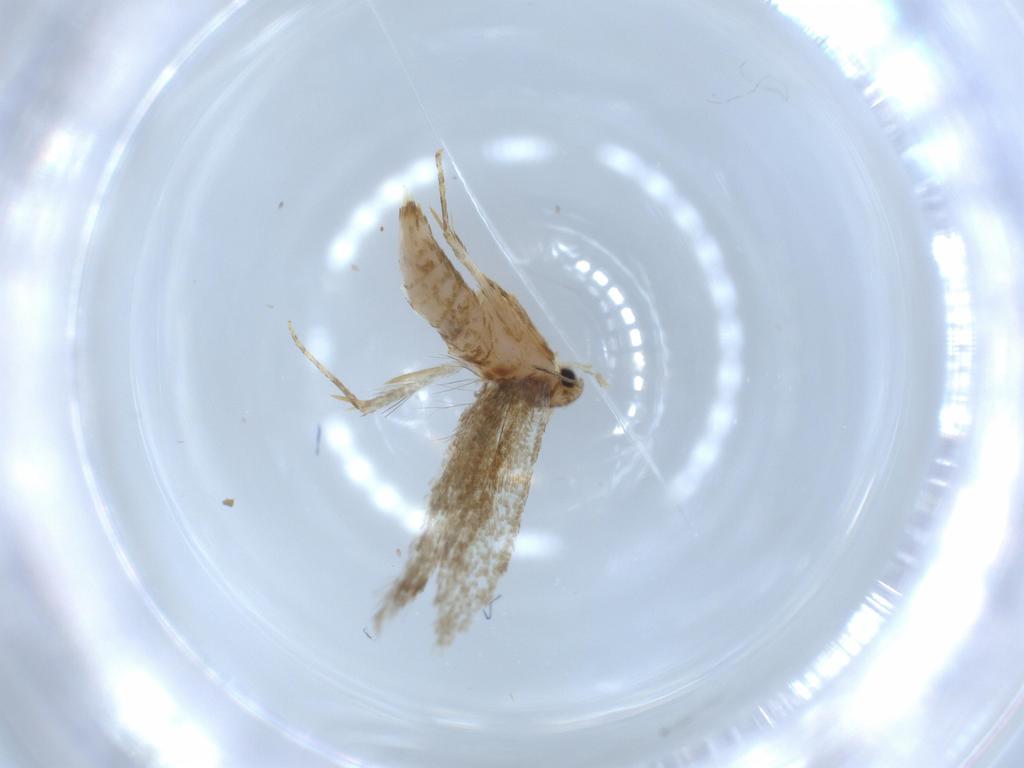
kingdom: Animalia
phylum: Arthropoda
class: Insecta
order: Lepidoptera
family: Tineidae
